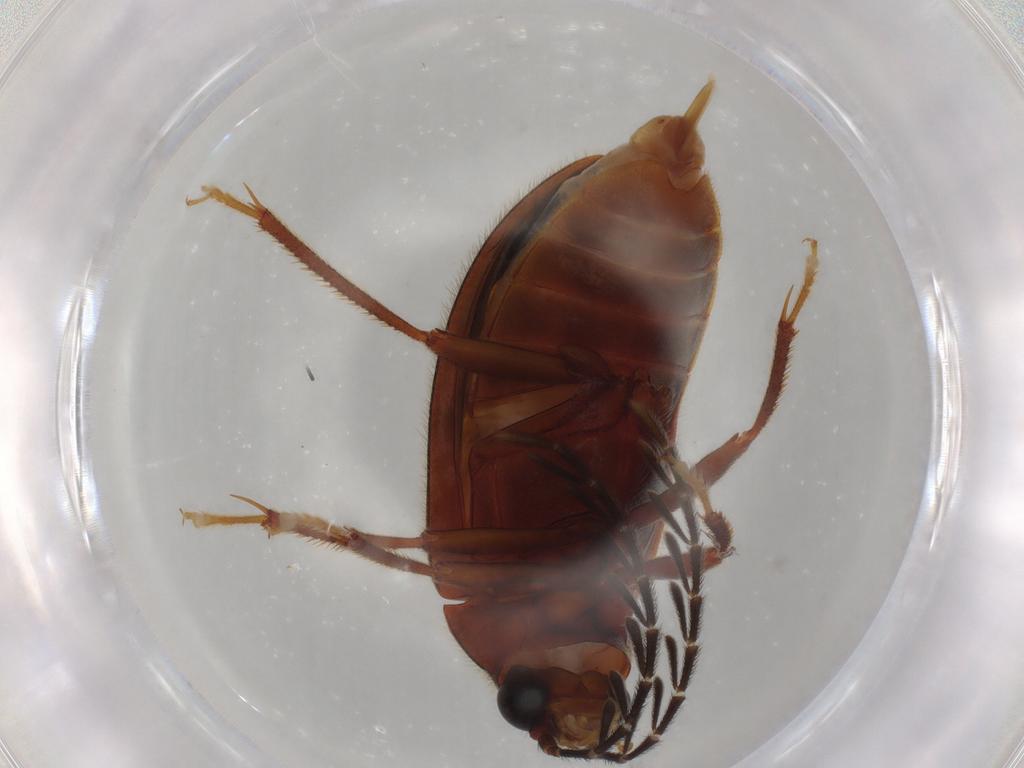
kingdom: Animalia
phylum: Arthropoda
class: Insecta
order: Coleoptera
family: Ptilodactylidae
